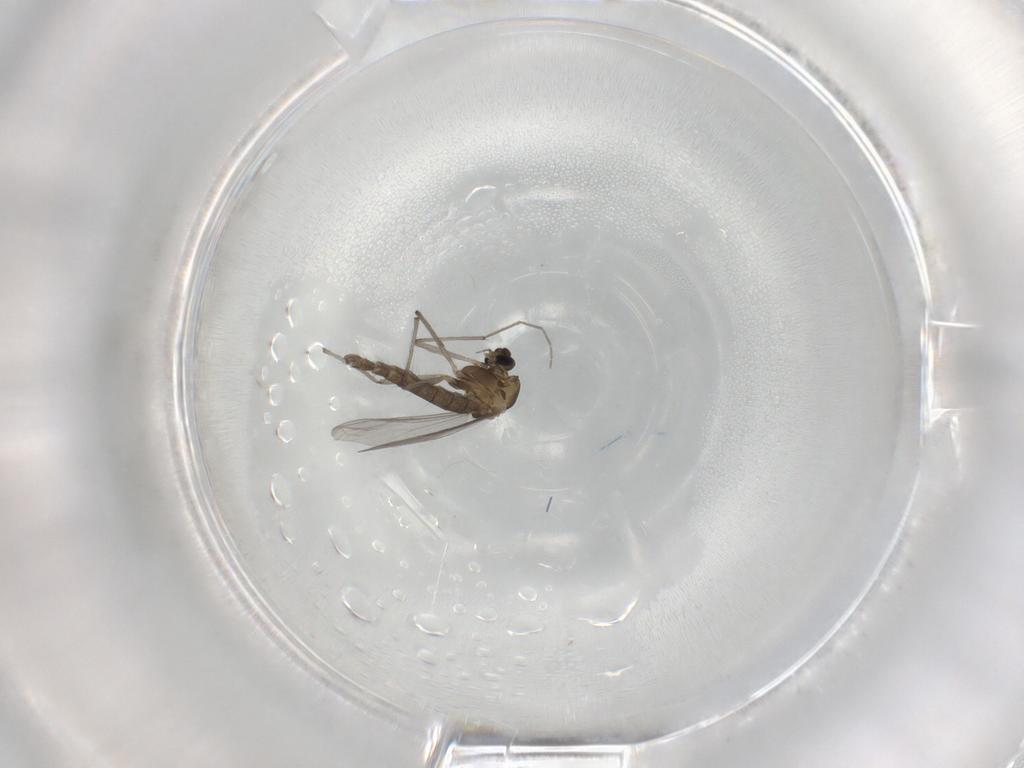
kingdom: Animalia
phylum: Arthropoda
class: Insecta
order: Diptera
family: Chironomidae
